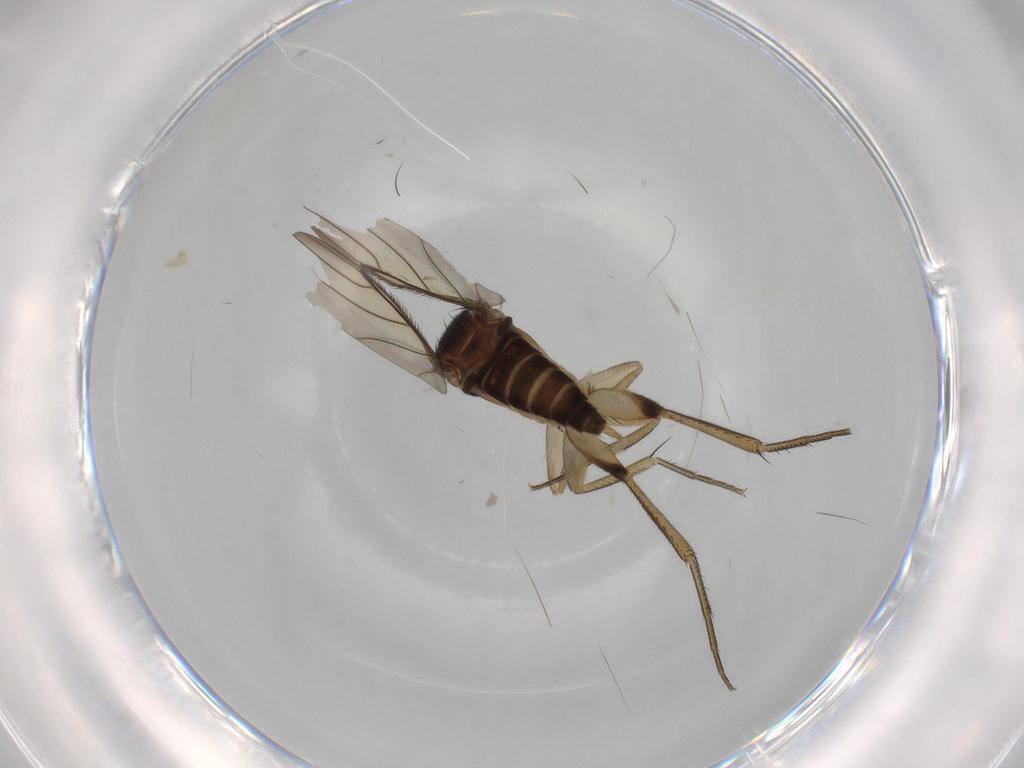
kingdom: Animalia
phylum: Arthropoda
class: Insecta
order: Diptera
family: Phoridae
